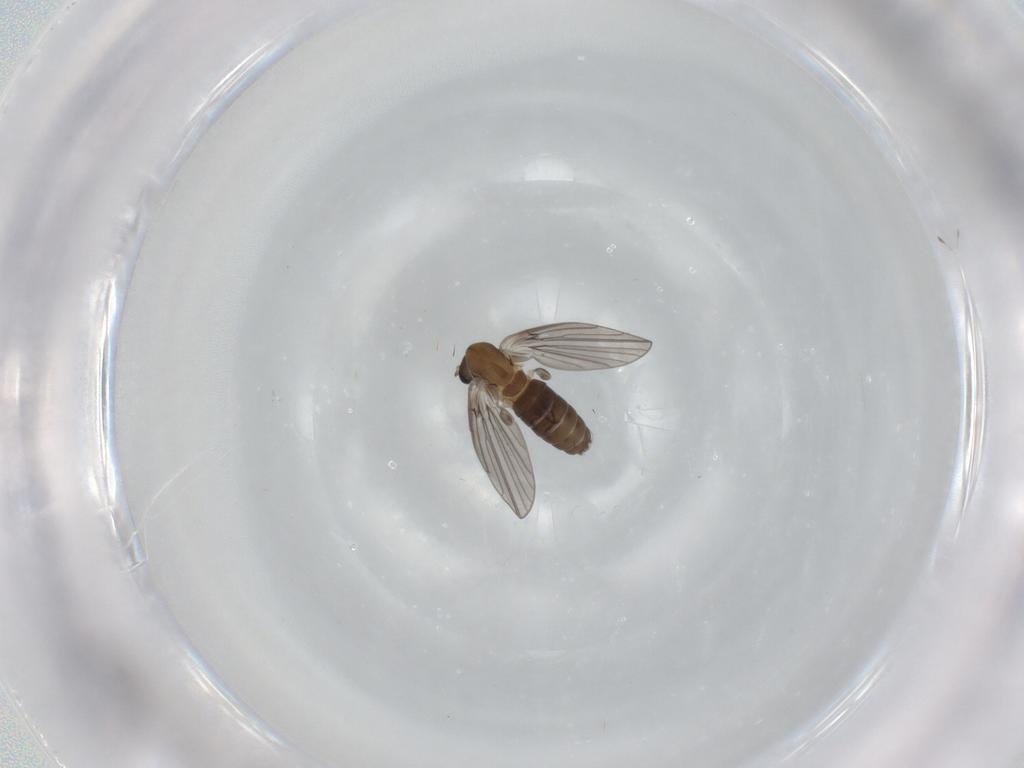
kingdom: Animalia
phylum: Arthropoda
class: Insecta
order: Diptera
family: Psychodidae
